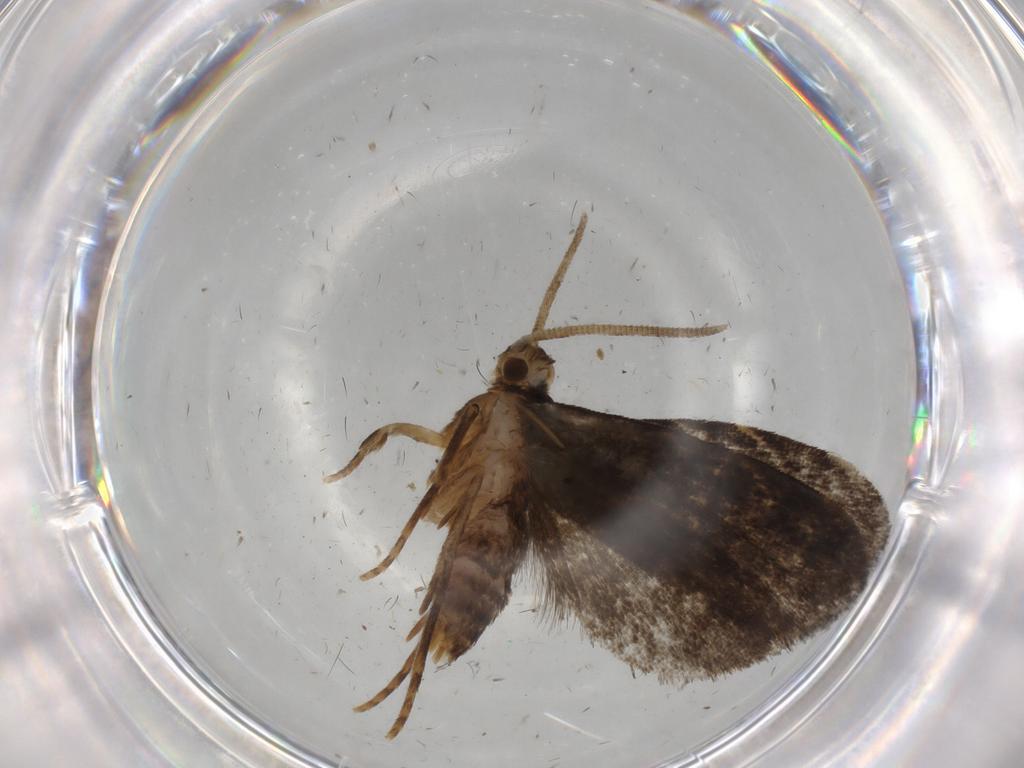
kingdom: Animalia
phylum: Arthropoda
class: Insecta
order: Lepidoptera
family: Dryadaulidae
